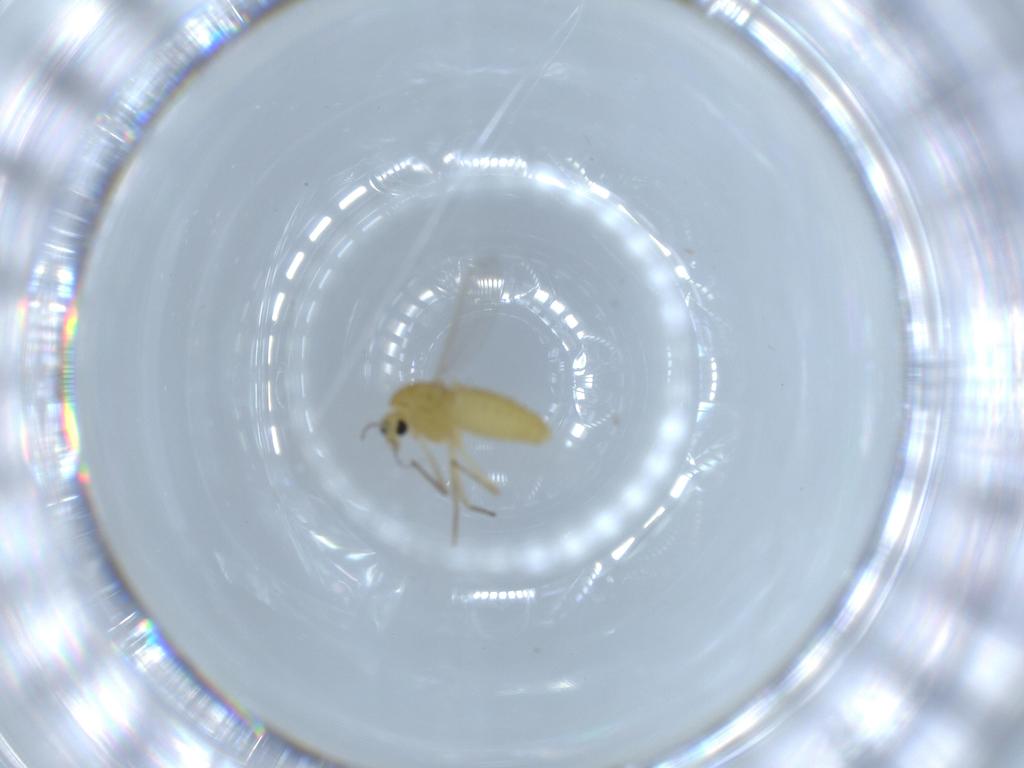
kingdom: Animalia
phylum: Arthropoda
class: Insecta
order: Diptera
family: Chironomidae
